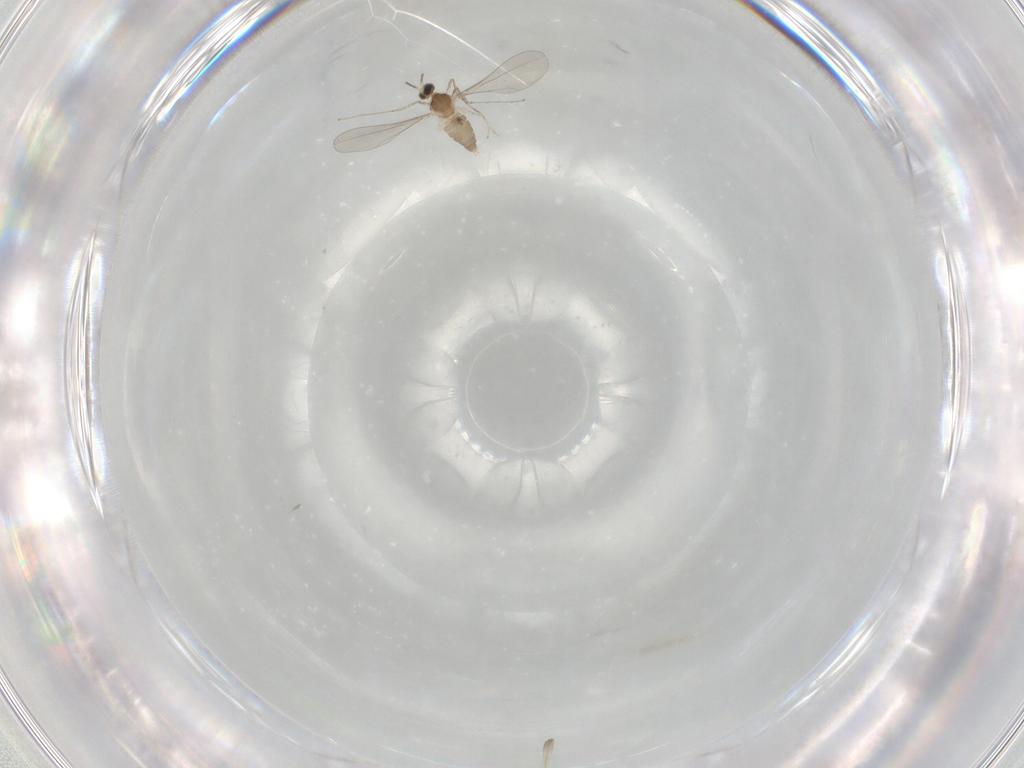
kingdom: Animalia
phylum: Arthropoda
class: Insecta
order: Diptera
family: Cecidomyiidae
